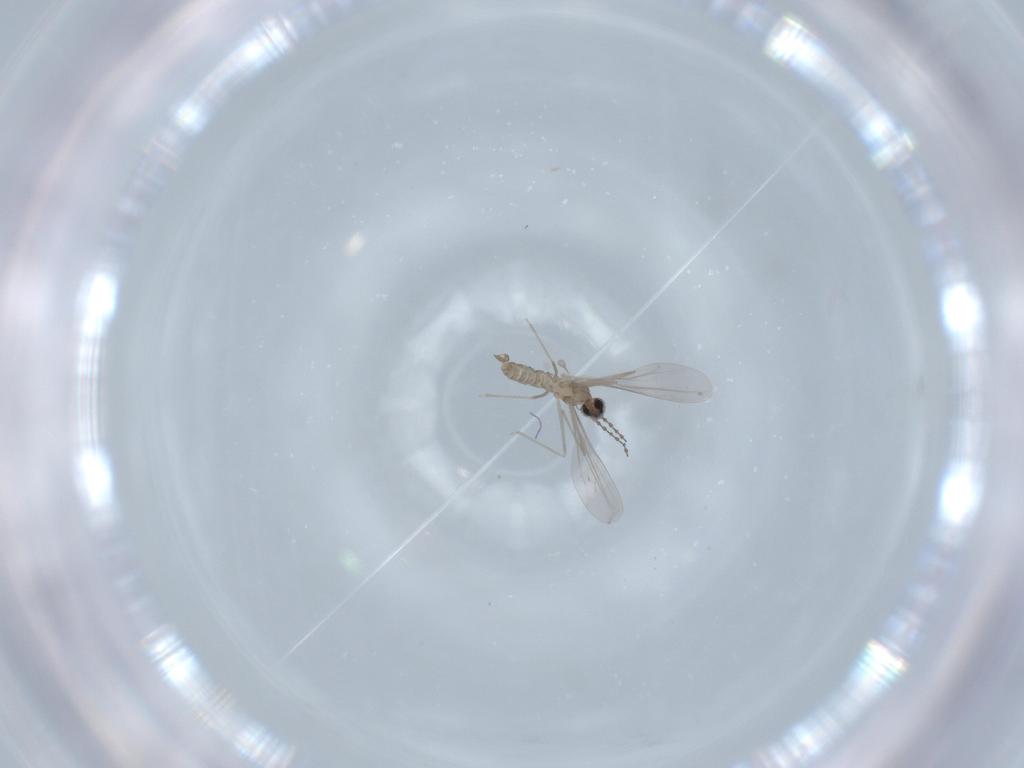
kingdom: Animalia
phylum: Arthropoda
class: Insecta
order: Diptera
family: Cecidomyiidae
